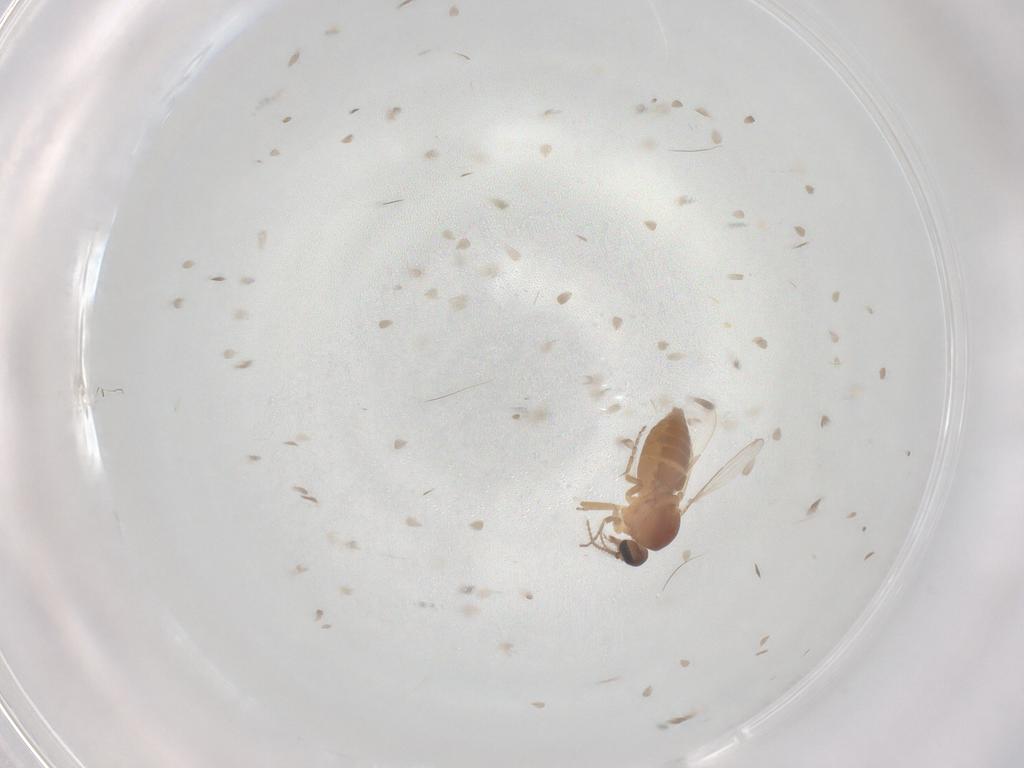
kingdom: Animalia
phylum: Arthropoda
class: Insecta
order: Diptera
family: Ceratopogonidae
